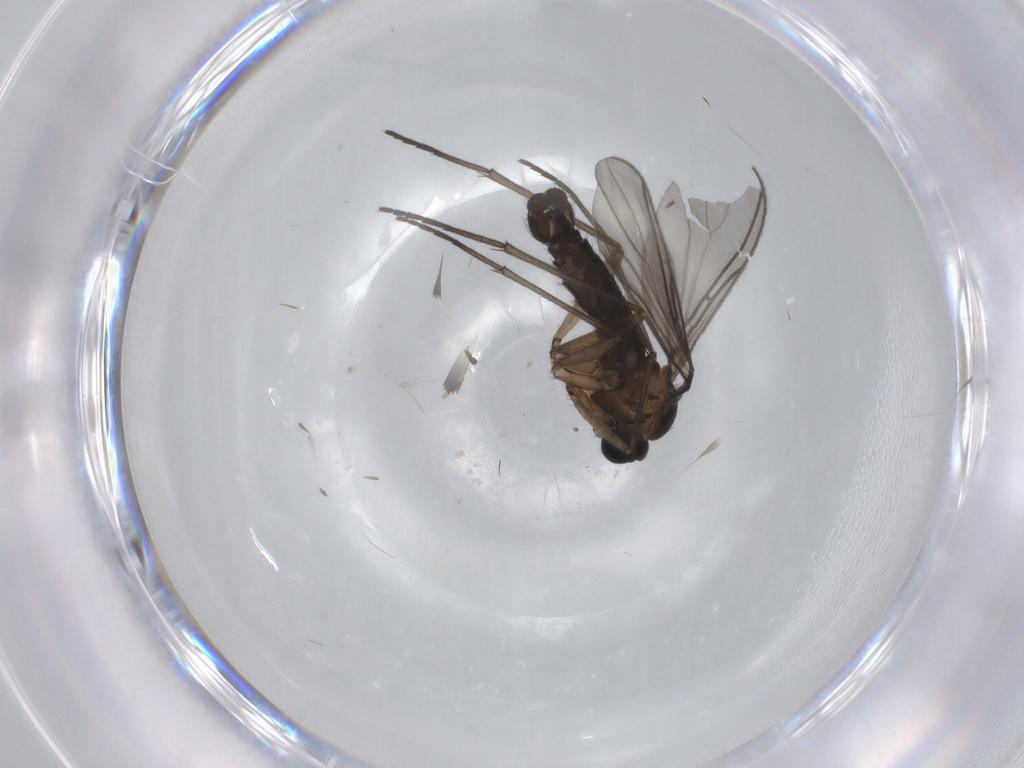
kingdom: Animalia
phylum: Arthropoda
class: Insecta
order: Diptera
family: Sciaridae
